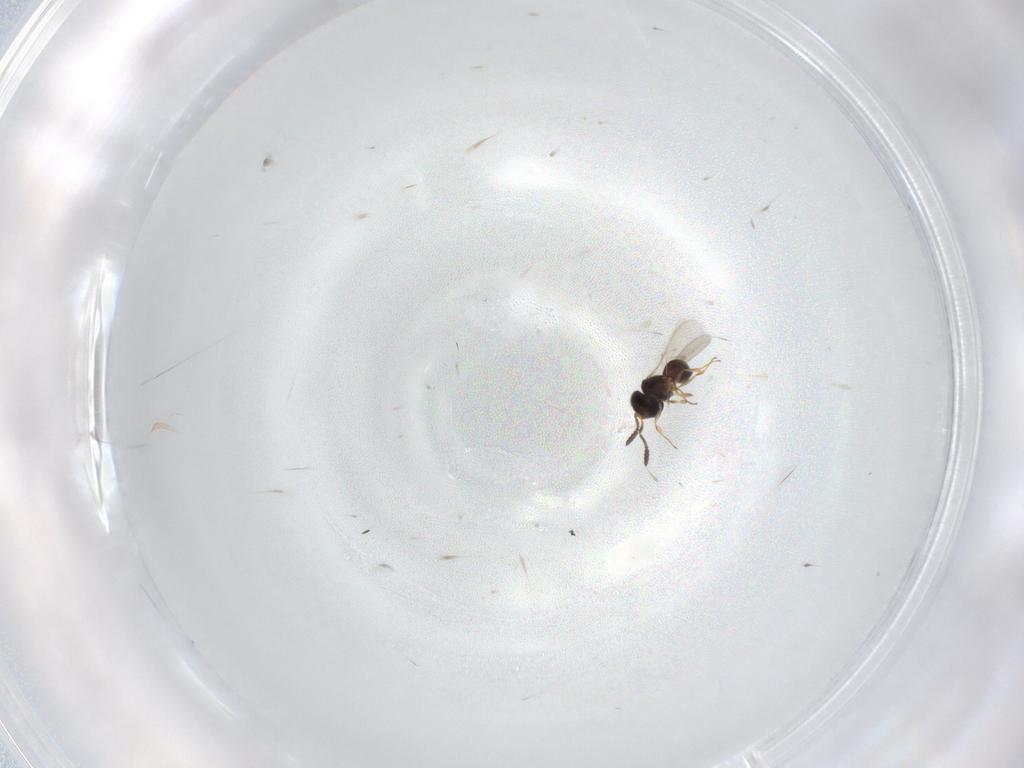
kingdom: Animalia
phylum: Arthropoda
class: Insecta
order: Hymenoptera
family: Scelionidae
